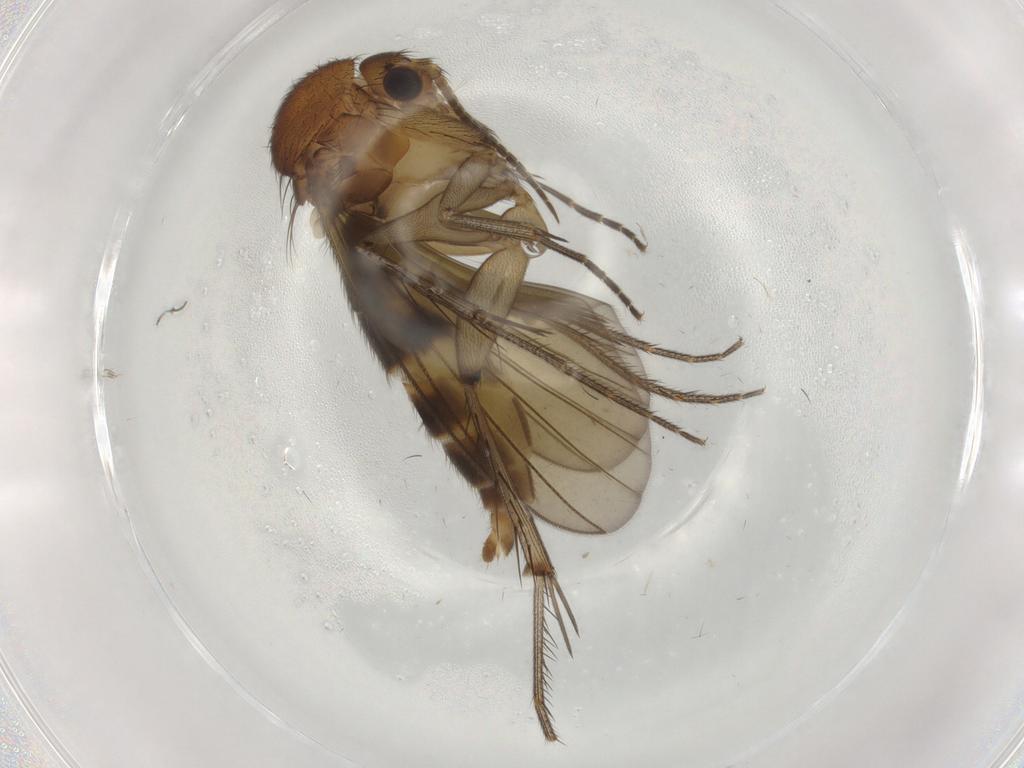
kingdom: Animalia
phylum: Arthropoda
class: Insecta
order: Diptera
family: Mycetophilidae
